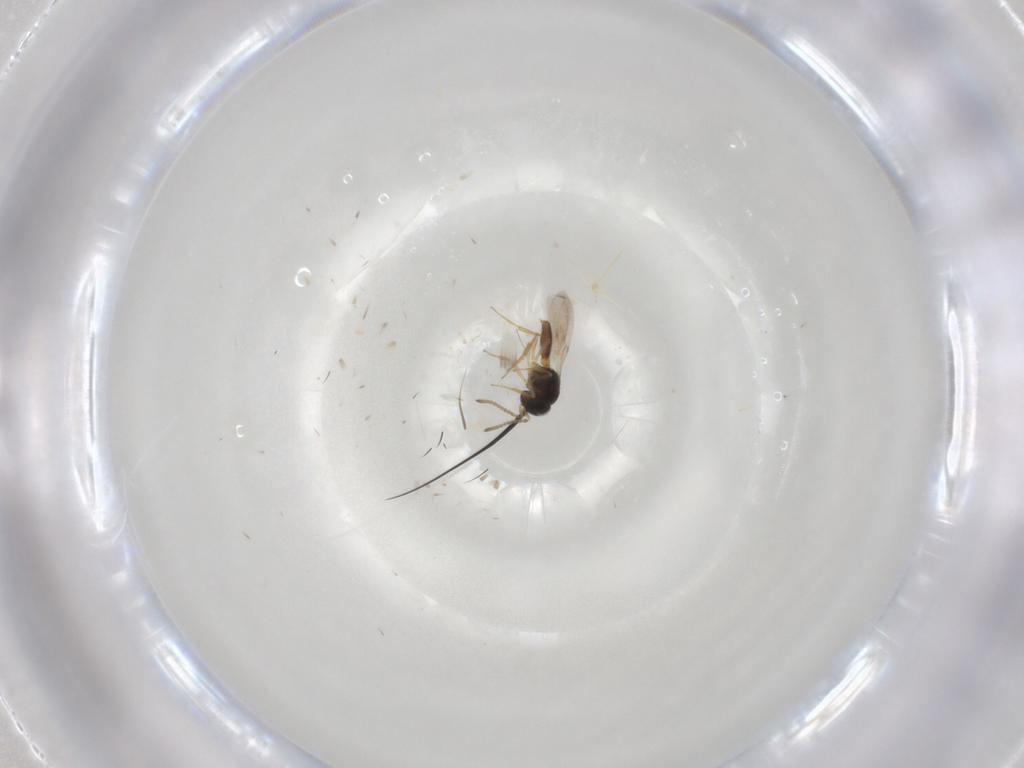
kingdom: Animalia
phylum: Arthropoda
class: Insecta
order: Hymenoptera
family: Scelionidae
